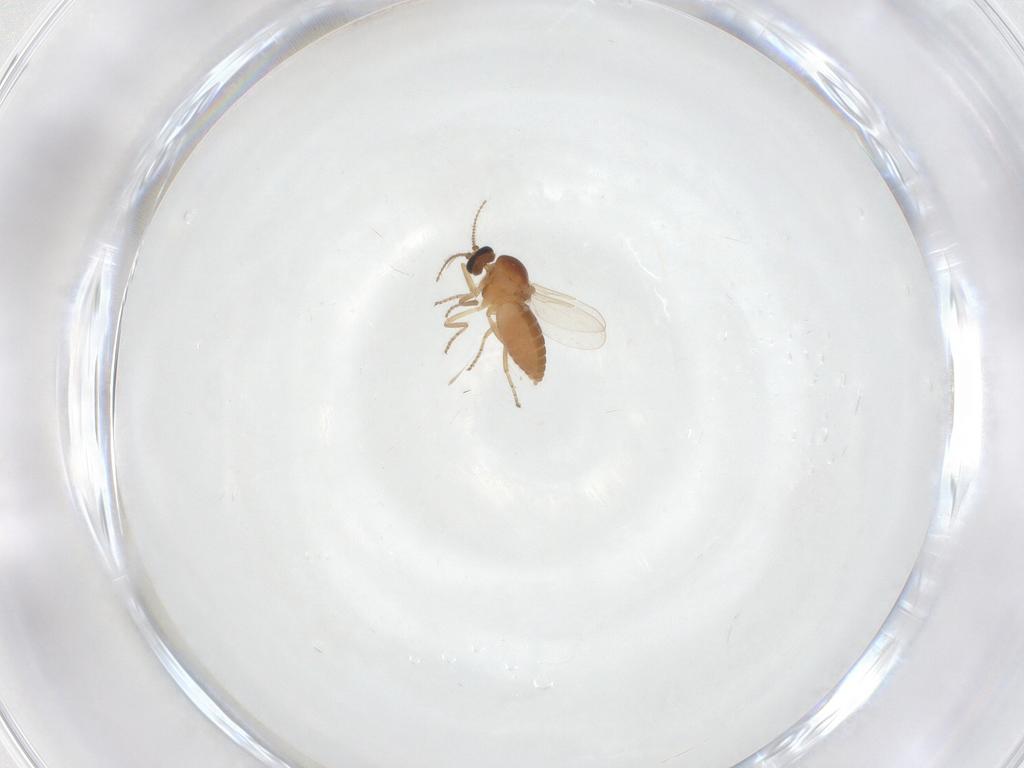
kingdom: Animalia
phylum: Arthropoda
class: Insecta
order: Diptera
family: Ceratopogonidae
